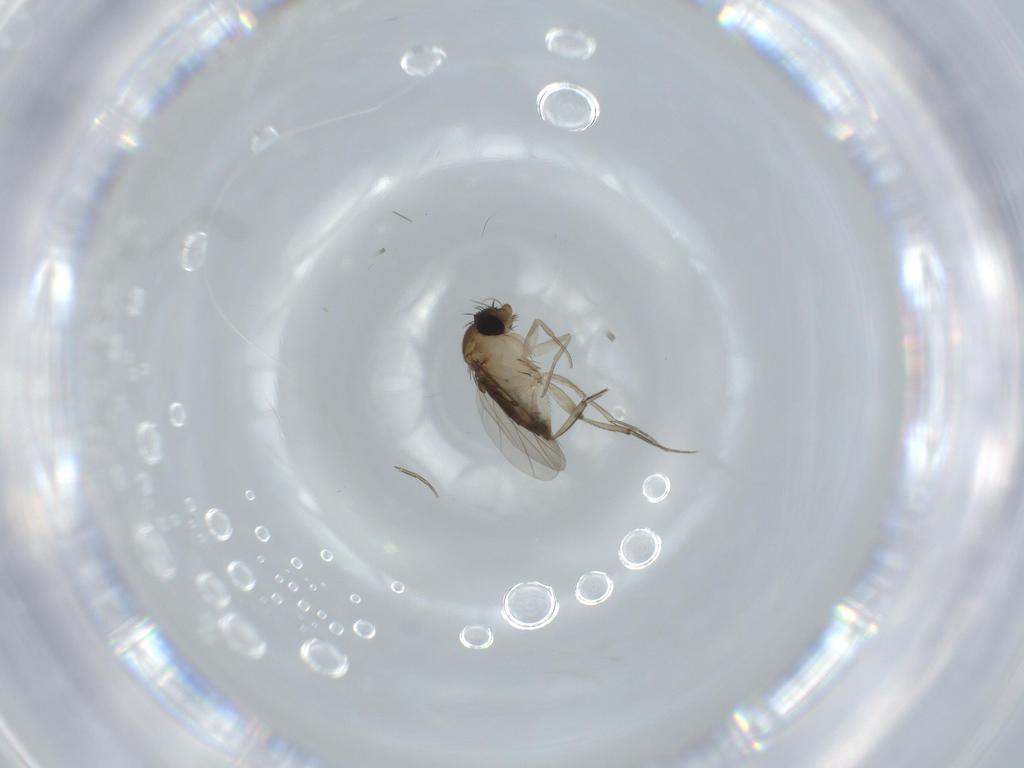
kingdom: Animalia
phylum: Arthropoda
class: Insecta
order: Diptera
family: Phoridae
